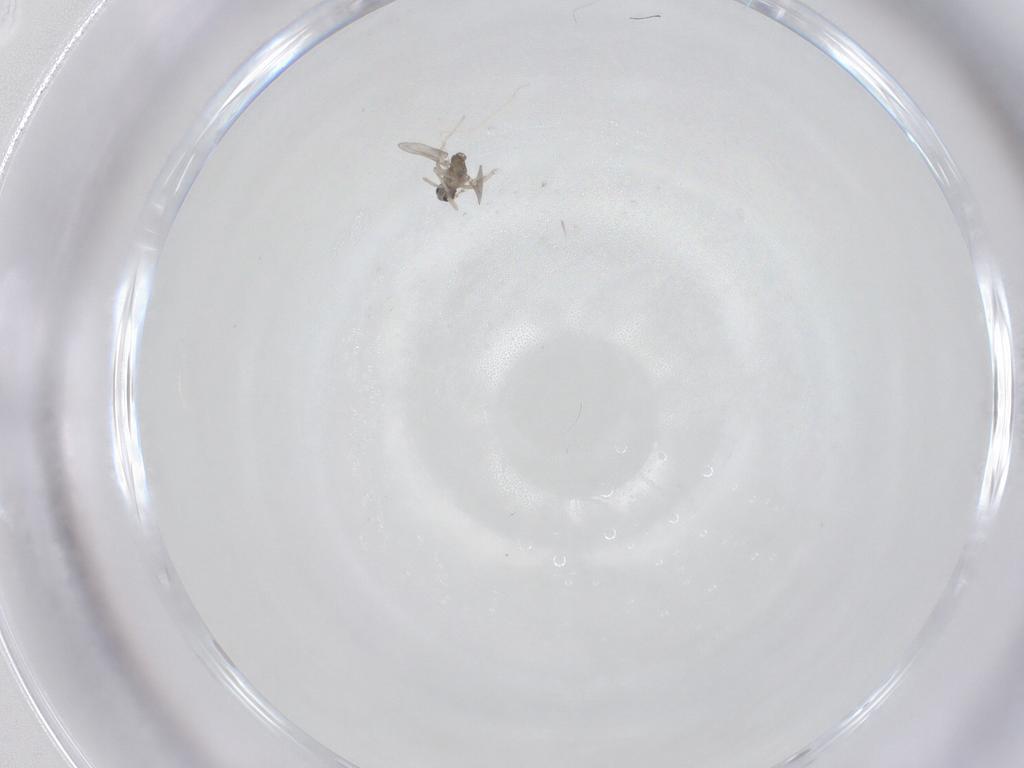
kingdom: Animalia
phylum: Arthropoda
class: Insecta
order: Diptera
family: Cecidomyiidae
